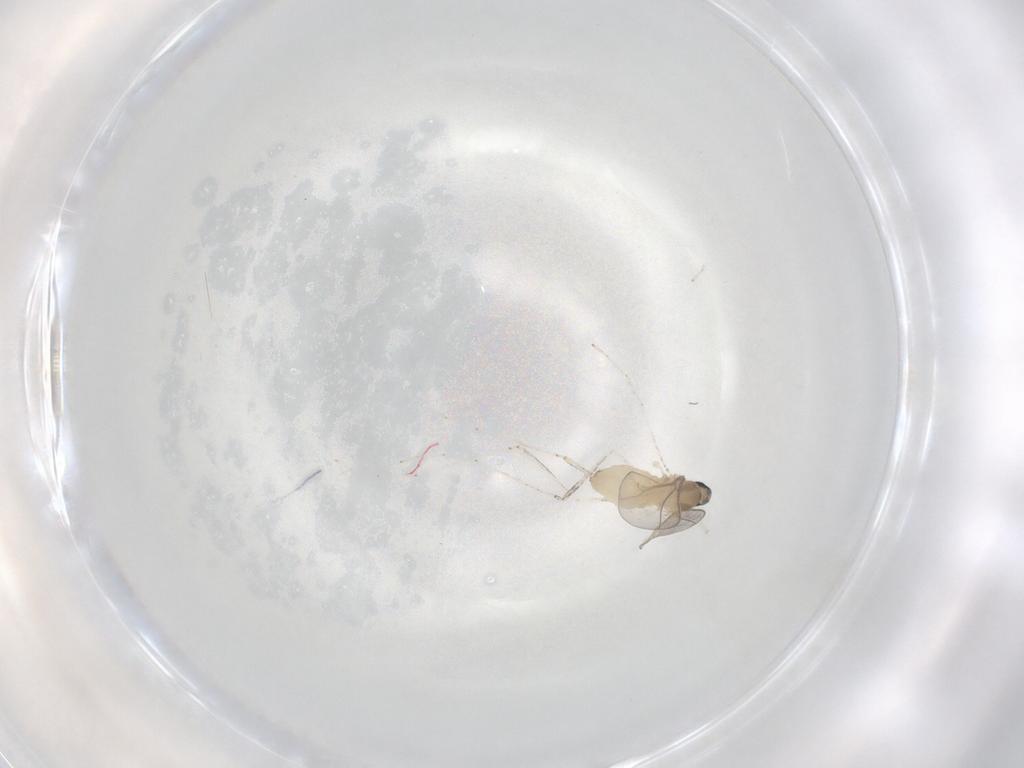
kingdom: Animalia
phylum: Arthropoda
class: Insecta
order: Diptera
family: Cecidomyiidae
